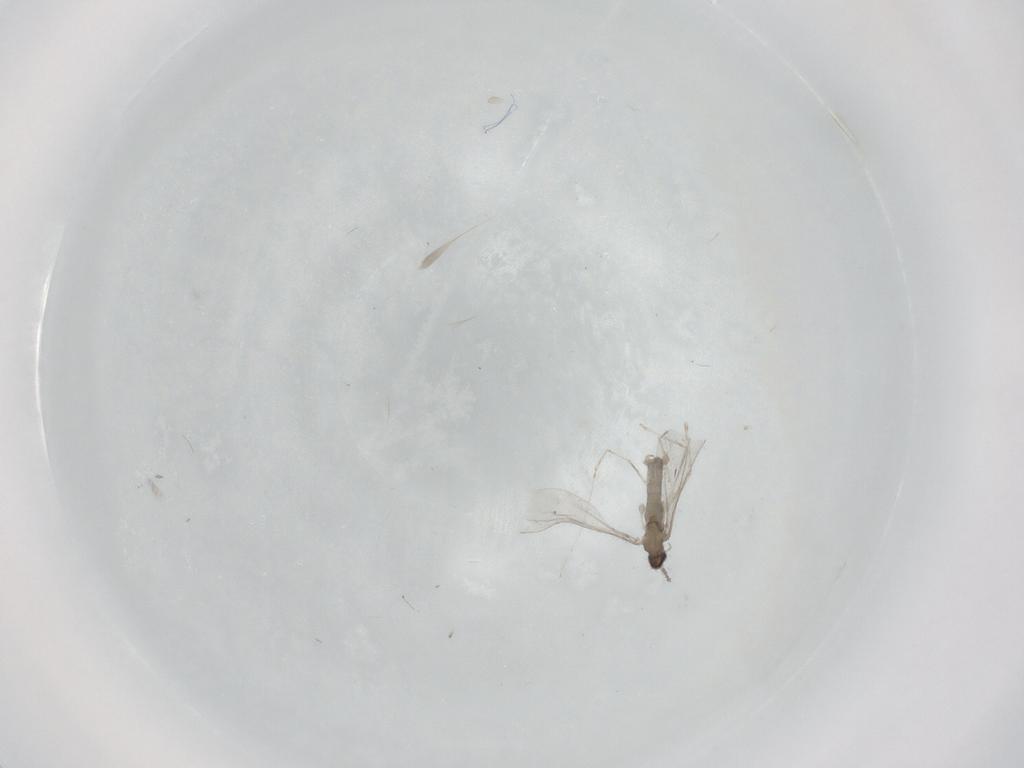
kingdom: Animalia
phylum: Arthropoda
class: Insecta
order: Diptera
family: Cecidomyiidae
